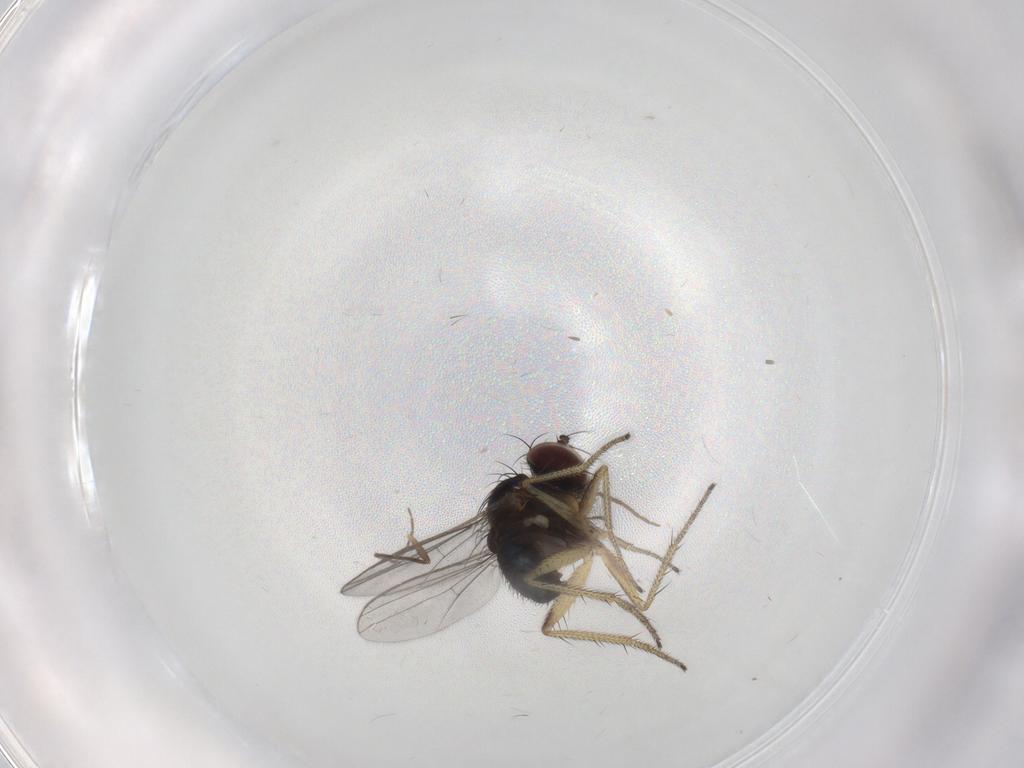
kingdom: Animalia
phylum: Arthropoda
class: Insecta
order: Diptera
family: Dolichopodidae
